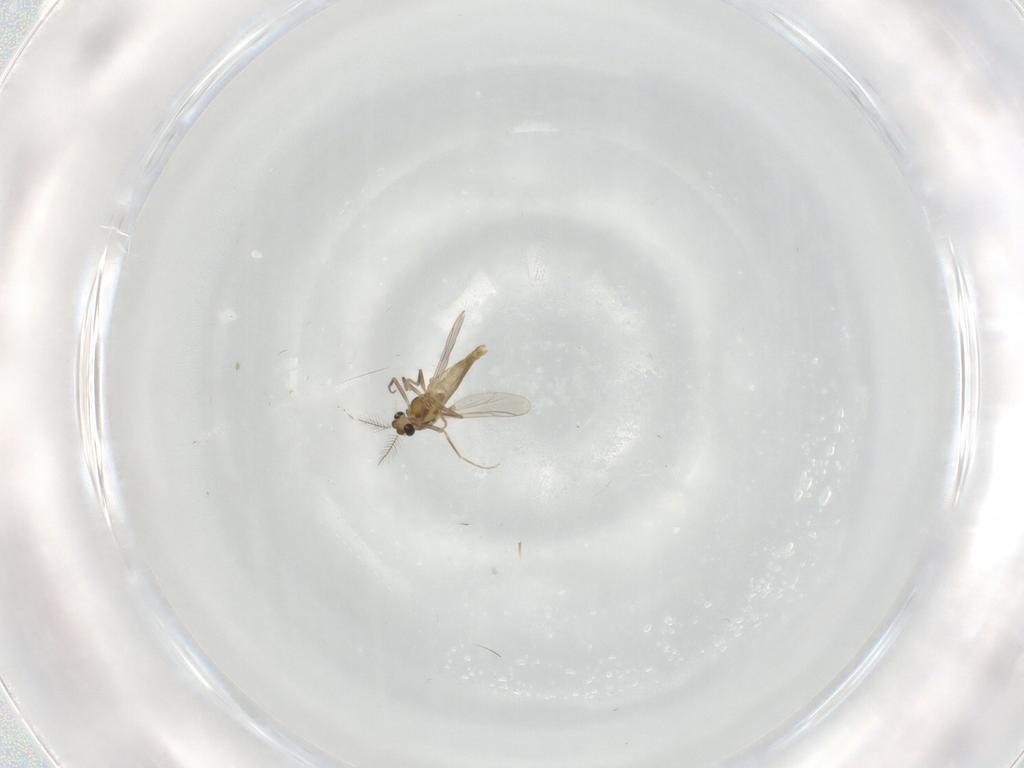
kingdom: Animalia
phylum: Arthropoda
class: Insecta
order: Diptera
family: Chironomidae
